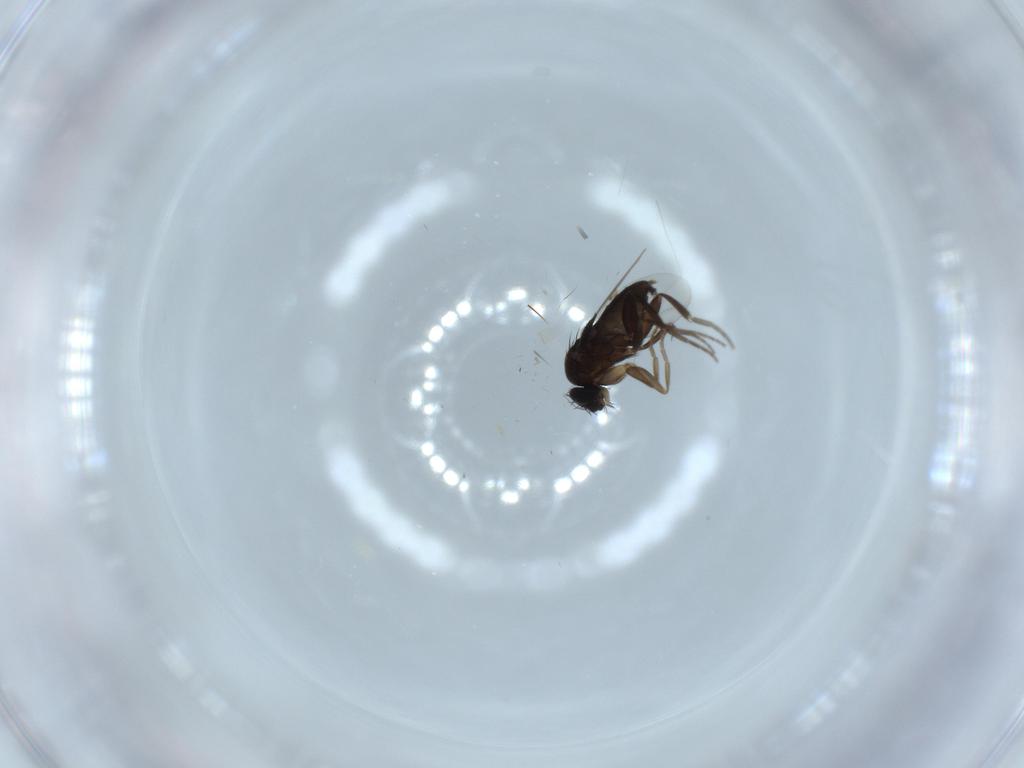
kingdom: Animalia
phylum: Arthropoda
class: Insecta
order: Diptera
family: Phoridae
